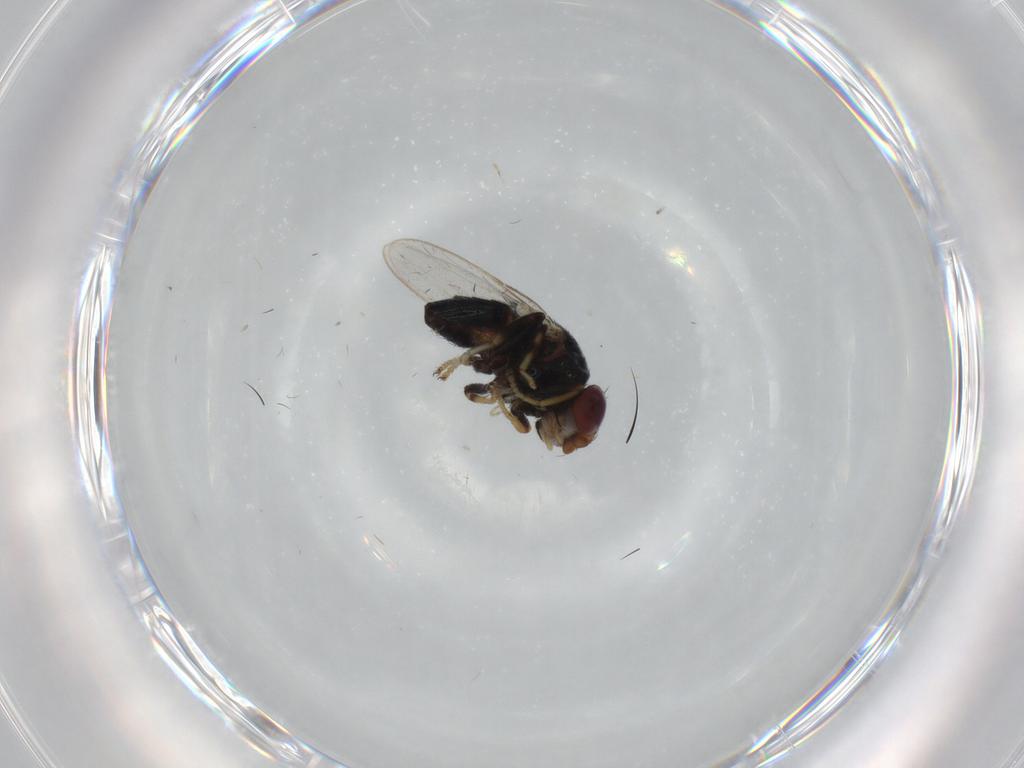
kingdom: Animalia
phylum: Arthropoda
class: Insecta
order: Diptera
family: Chloropidae
